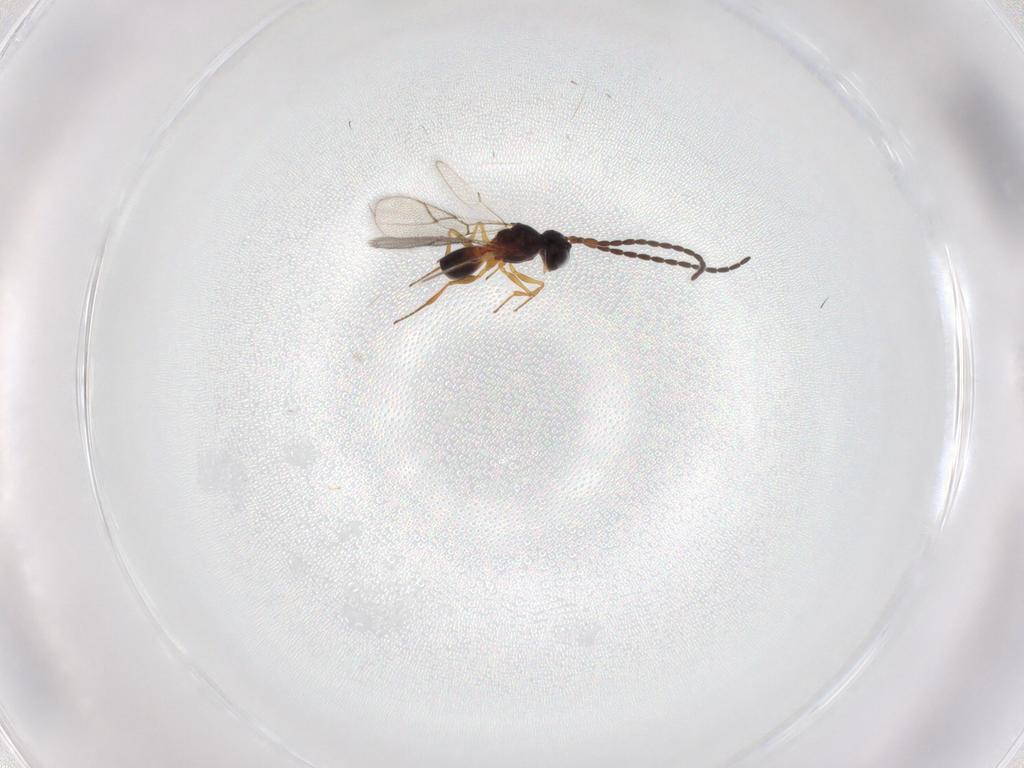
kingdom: Animalia
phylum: Arthropoda
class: Insecta
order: Hymenoptera
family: Figitidae
